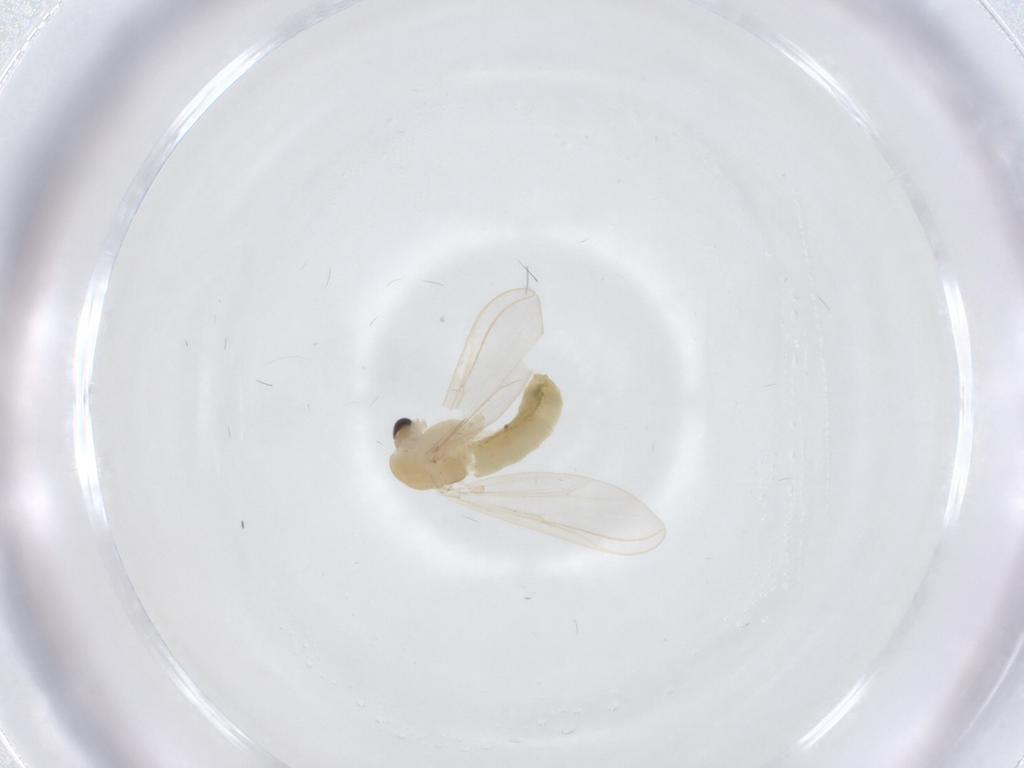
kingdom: Animalia
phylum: Arthropoda
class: Insecta
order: Diptera
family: Chironomidae
